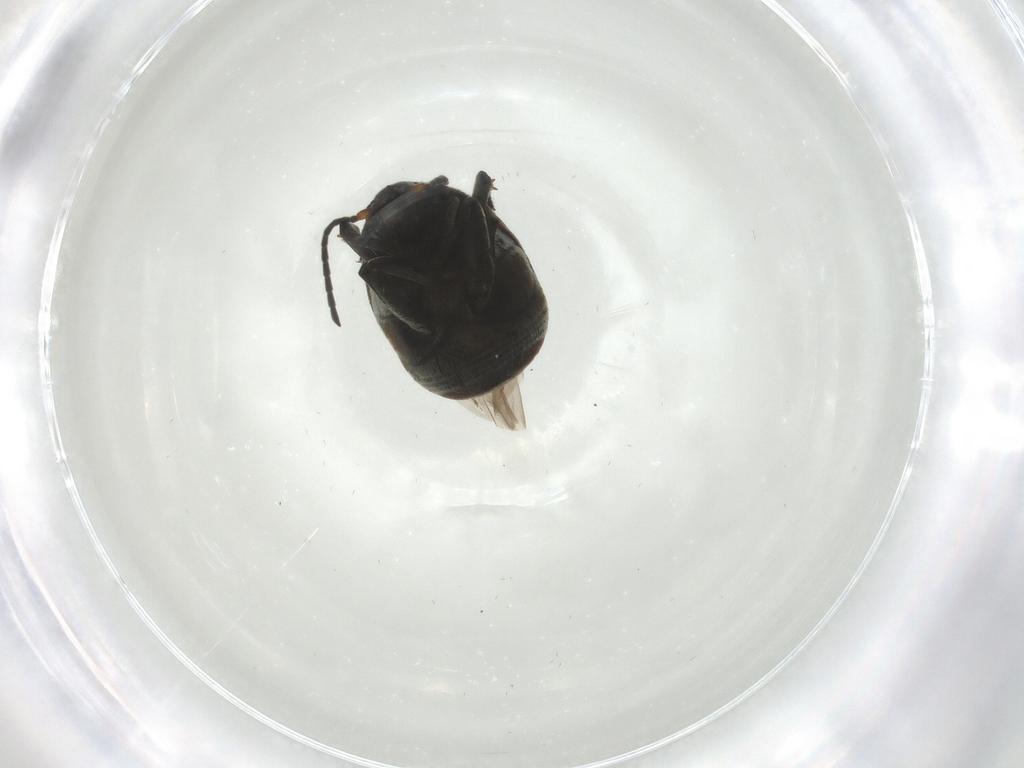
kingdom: Animalia
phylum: Arthropoda
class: Insecta
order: Coleoptera
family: Chrysomelidae
